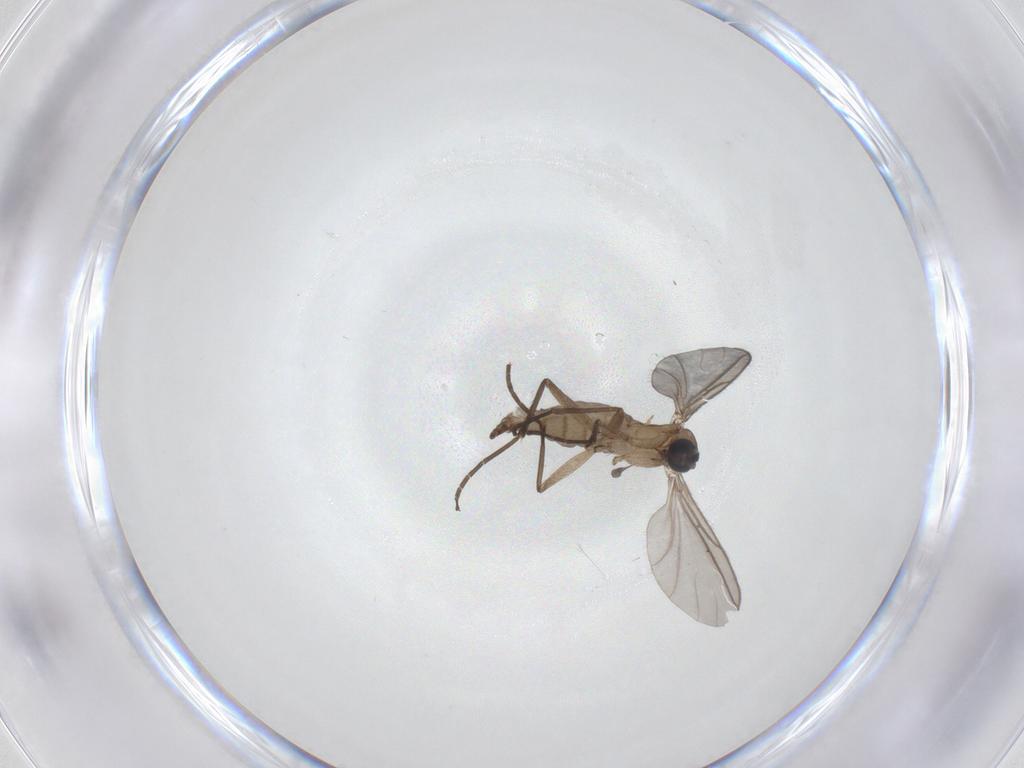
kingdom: Animalia
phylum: Arthropoda
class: Insecta
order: Diptera
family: Sciaridae
